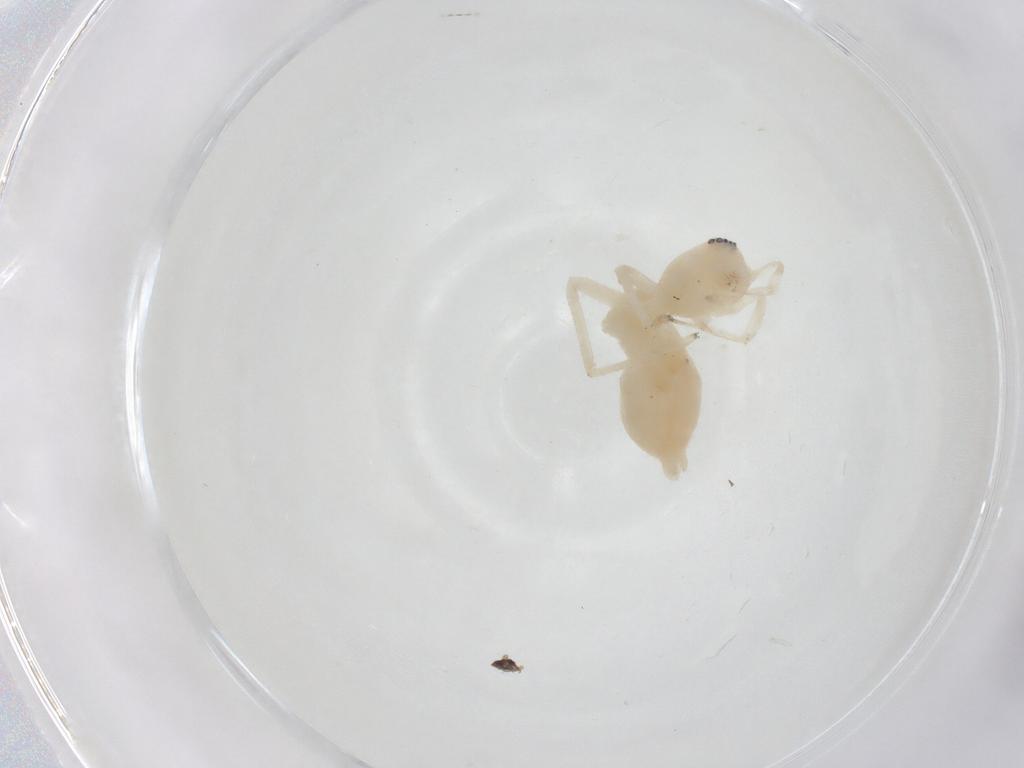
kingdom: Animalia
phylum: Arthropoda
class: Arachnida
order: Araneae
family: Anyphaenidae
